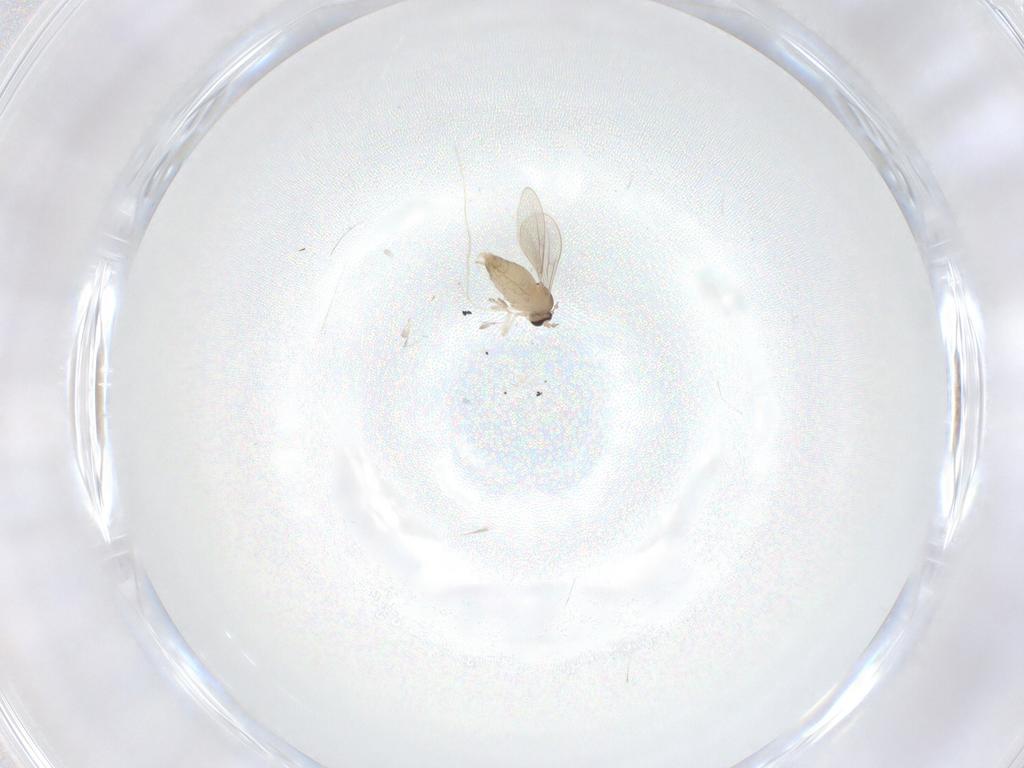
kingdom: Animalia
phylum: Arthropoda
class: Insecta
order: Diptera
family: Cecidomyiidae
